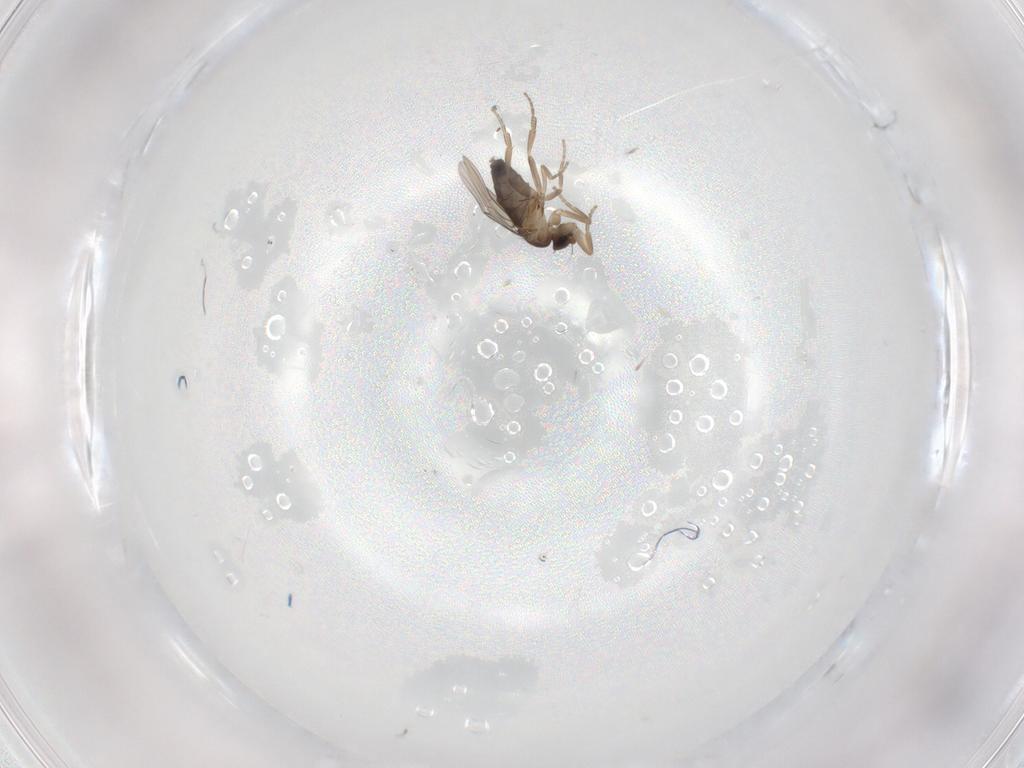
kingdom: Animalia
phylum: Arthropoda
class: Insecta
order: Diptera
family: Phoridae
